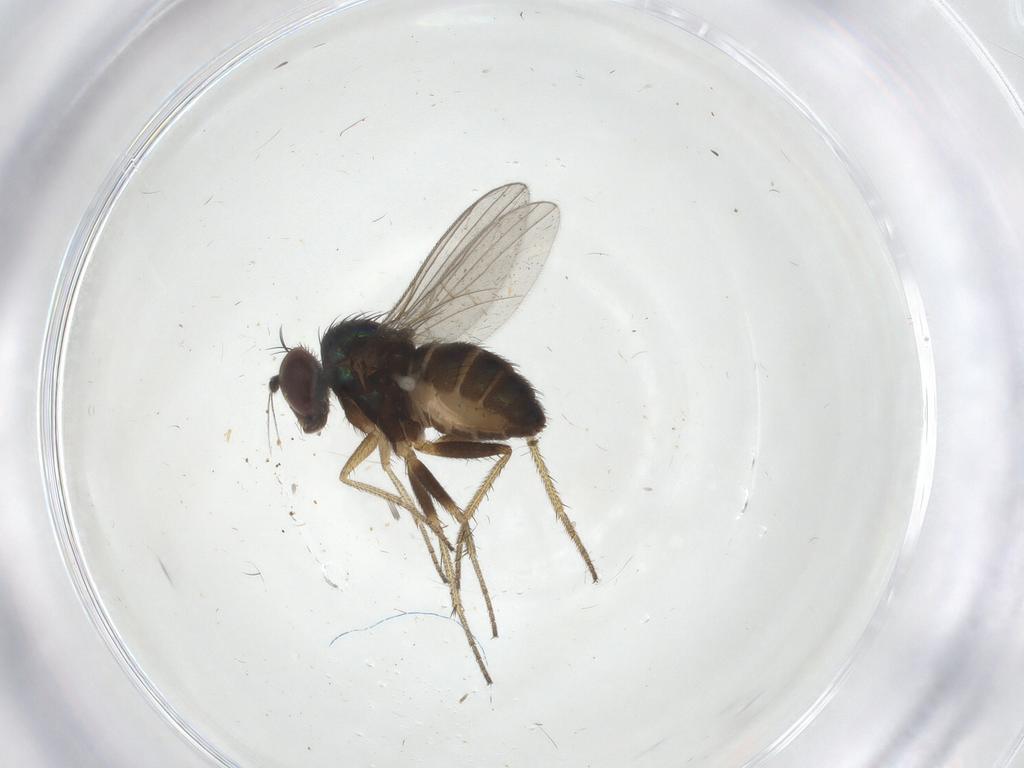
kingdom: Animalia
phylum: Arthropoda
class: Insecta
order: Diptera
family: Dolichopodidae
